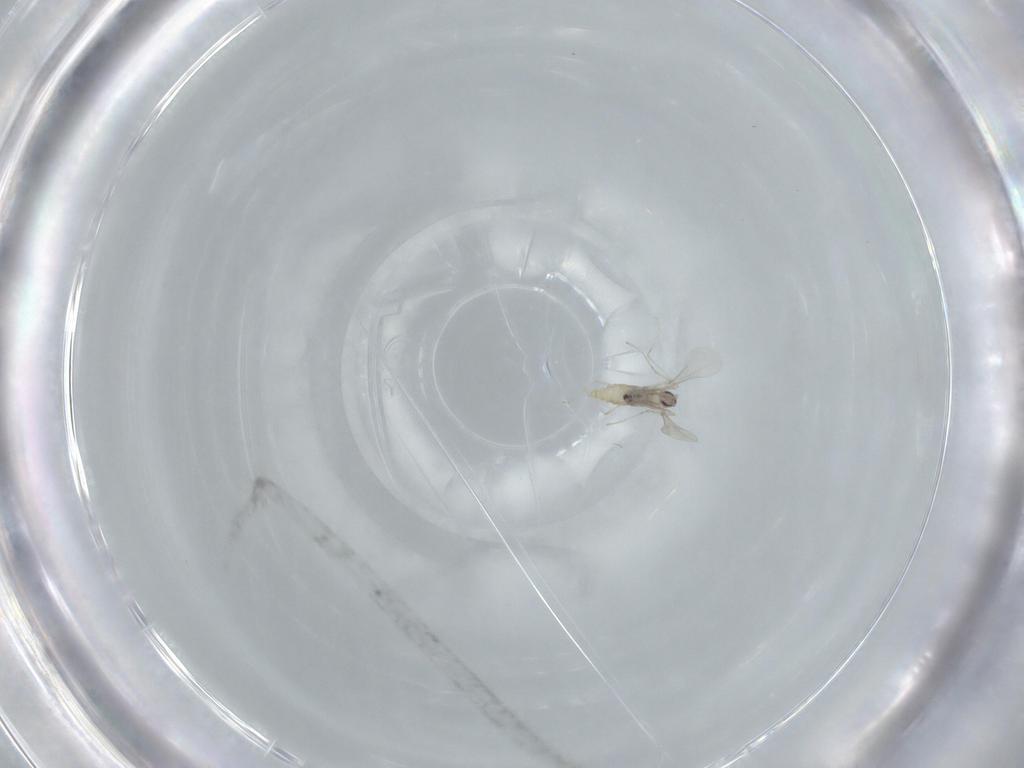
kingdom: Animalia
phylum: Arthropoda
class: Insecta
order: Diptera
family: Cecidomyiidae
